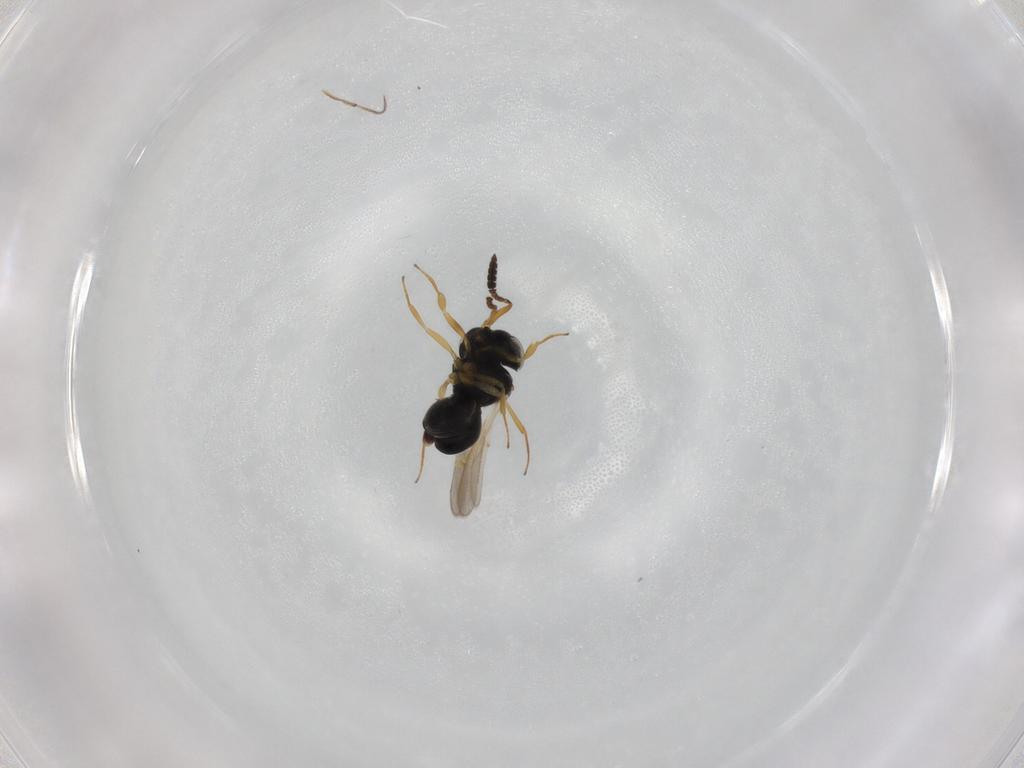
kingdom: Animalia
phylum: Arthropoda
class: Insecta
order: Hymenoptera
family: Scelionidae
